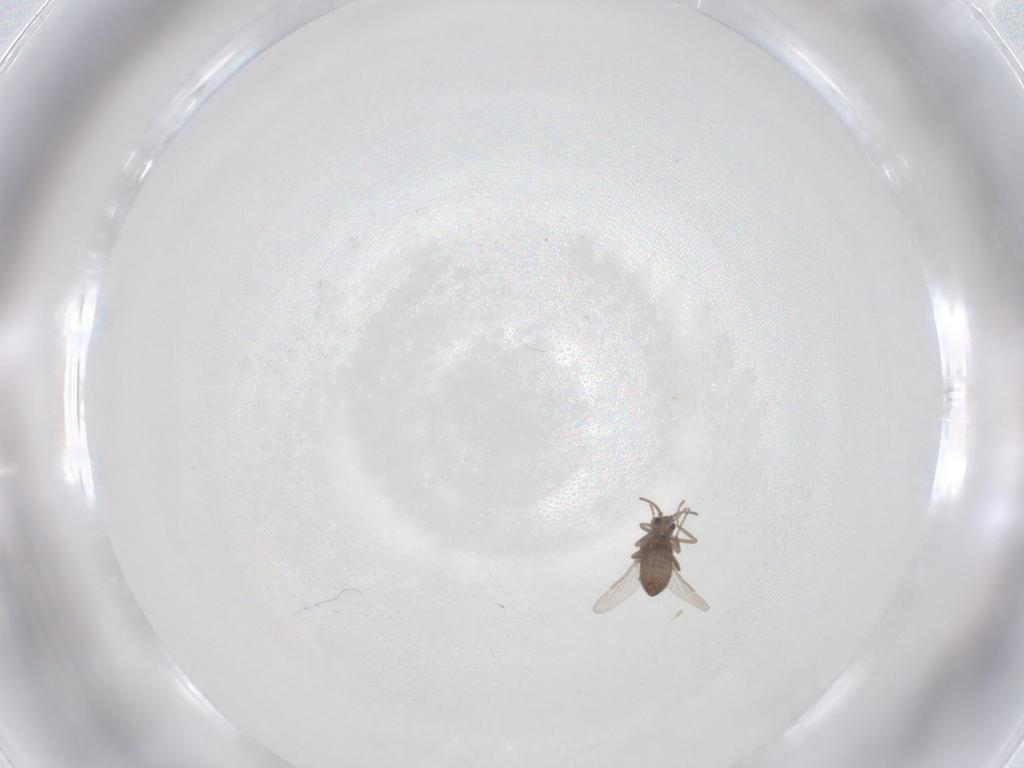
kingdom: Animalia
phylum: Arthropoda
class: Insecta
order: Diptera
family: Ceratopogonidae
